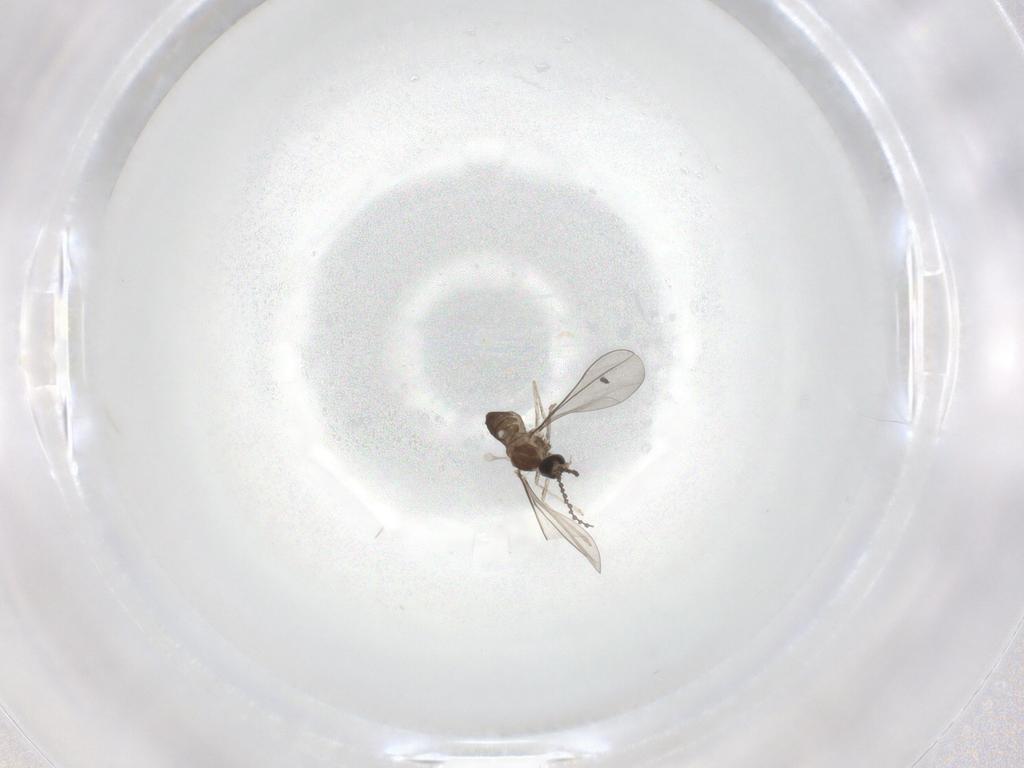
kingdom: Animalia
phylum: Arthropoda
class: Insecta
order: Diptera
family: Cecidomyiidae
